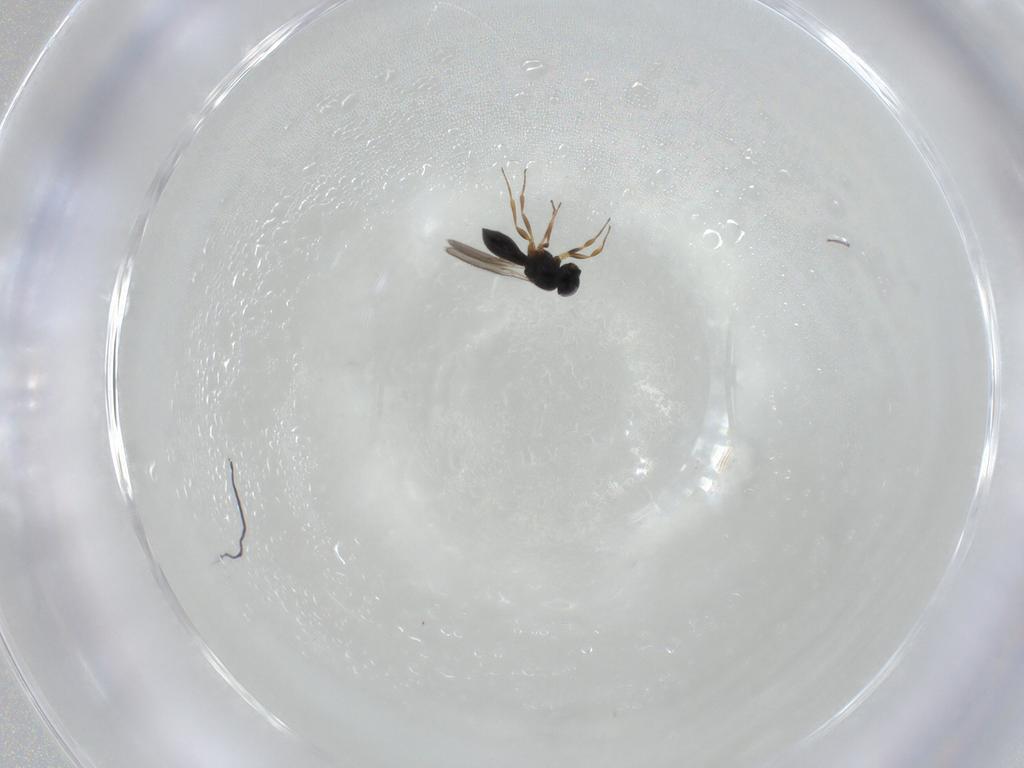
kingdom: Animalia
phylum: Arthropoda
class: Insecta
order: Hymenoptera
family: Scelionidae
